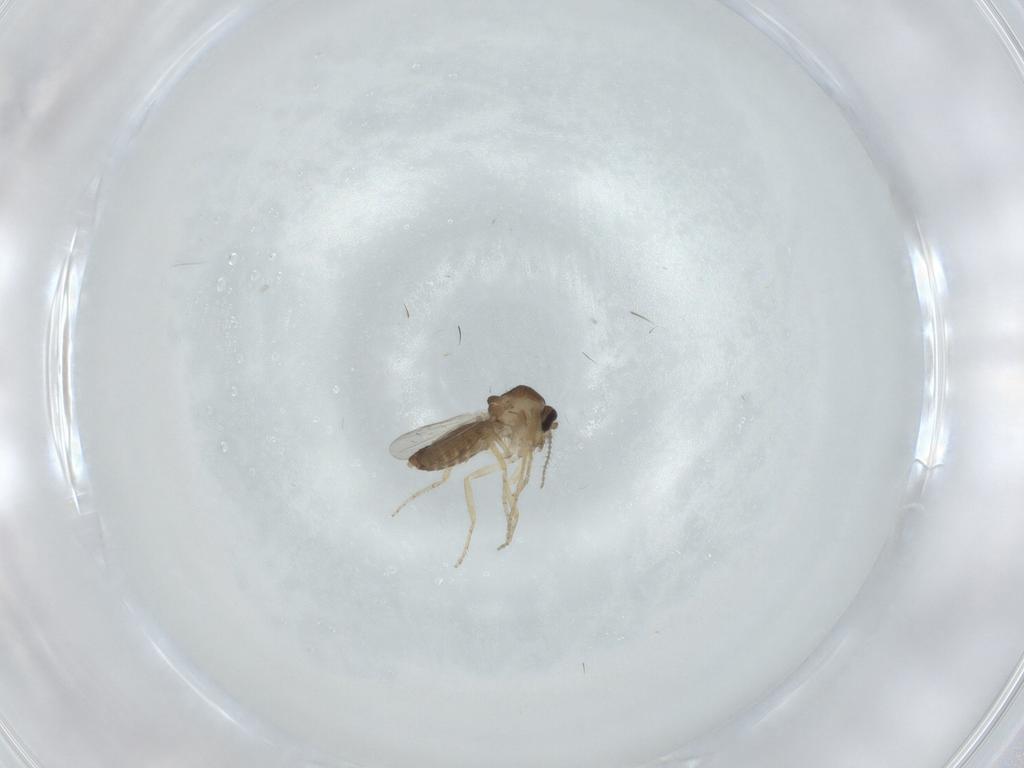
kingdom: Animalia
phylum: Arthropoda
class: Insecta
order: Diptera
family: Ceratopogonidae
